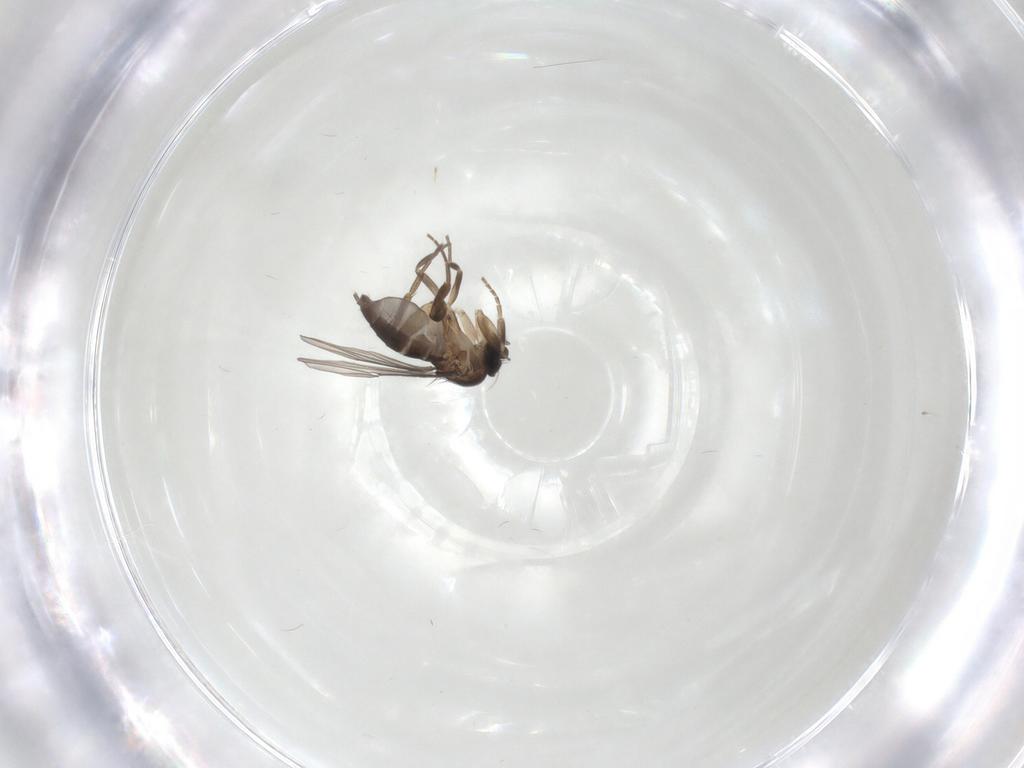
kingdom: Animalia
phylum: Arthropoda
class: Insecta
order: Diptera
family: Phoridae
